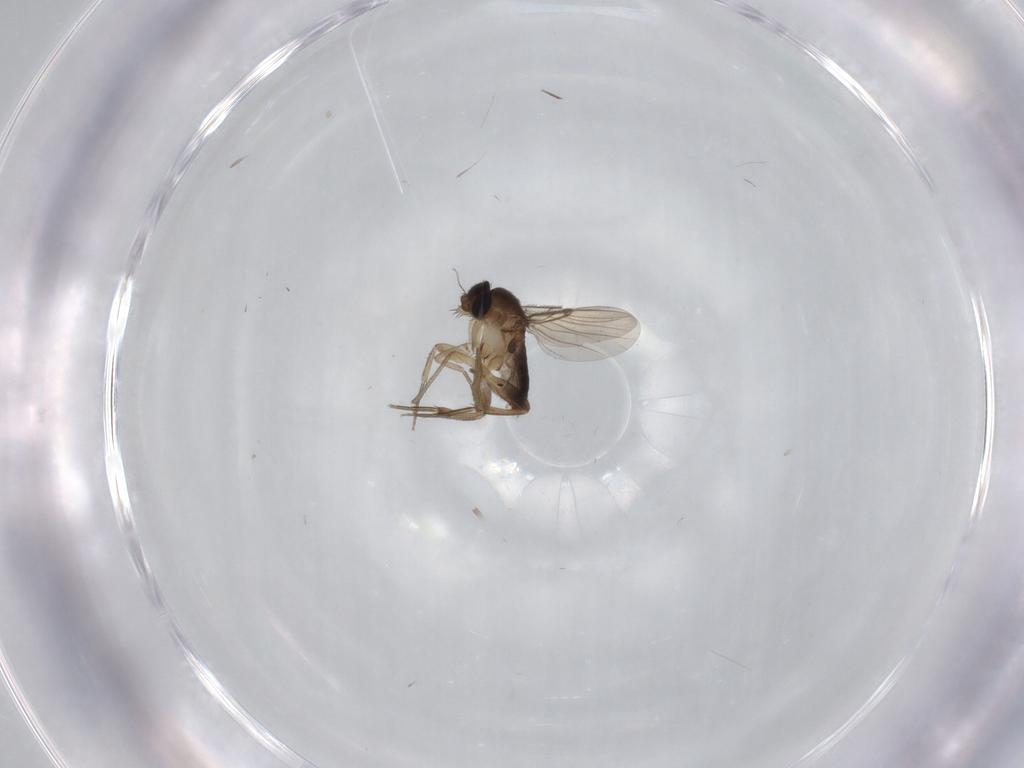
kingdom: Animalia
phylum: Arthropoda
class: Insecta
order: Diptera
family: Phoridae
